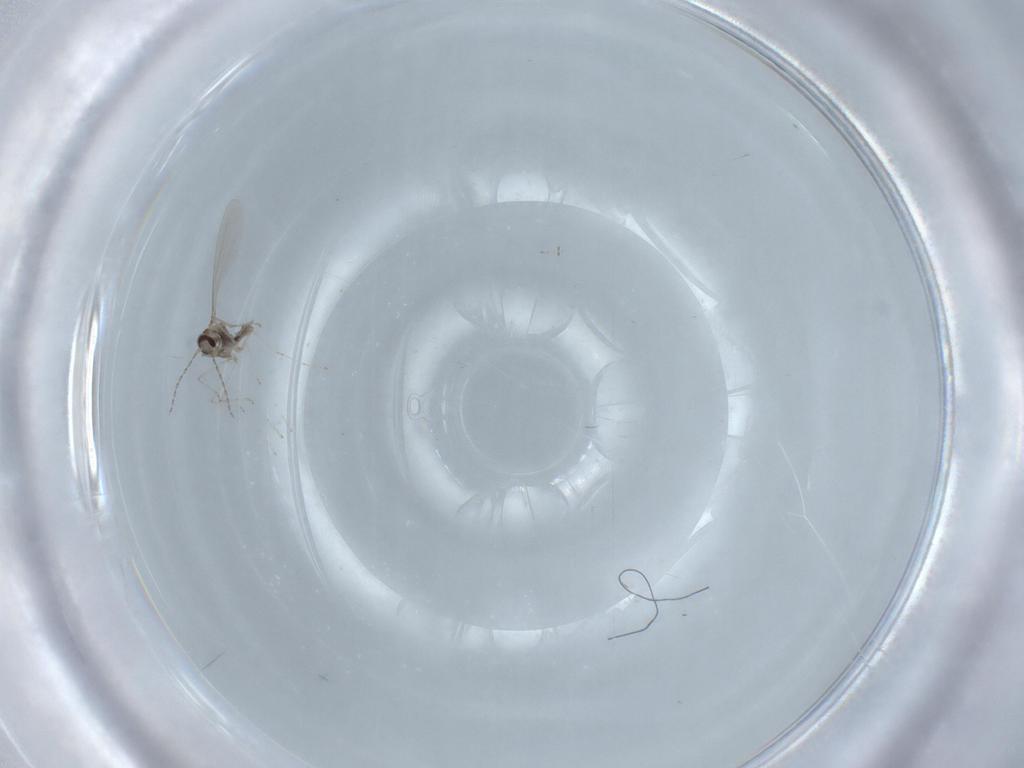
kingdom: Animalia
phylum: Arthropoda
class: Insecta
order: Diptera
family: Cecidomyiidae
